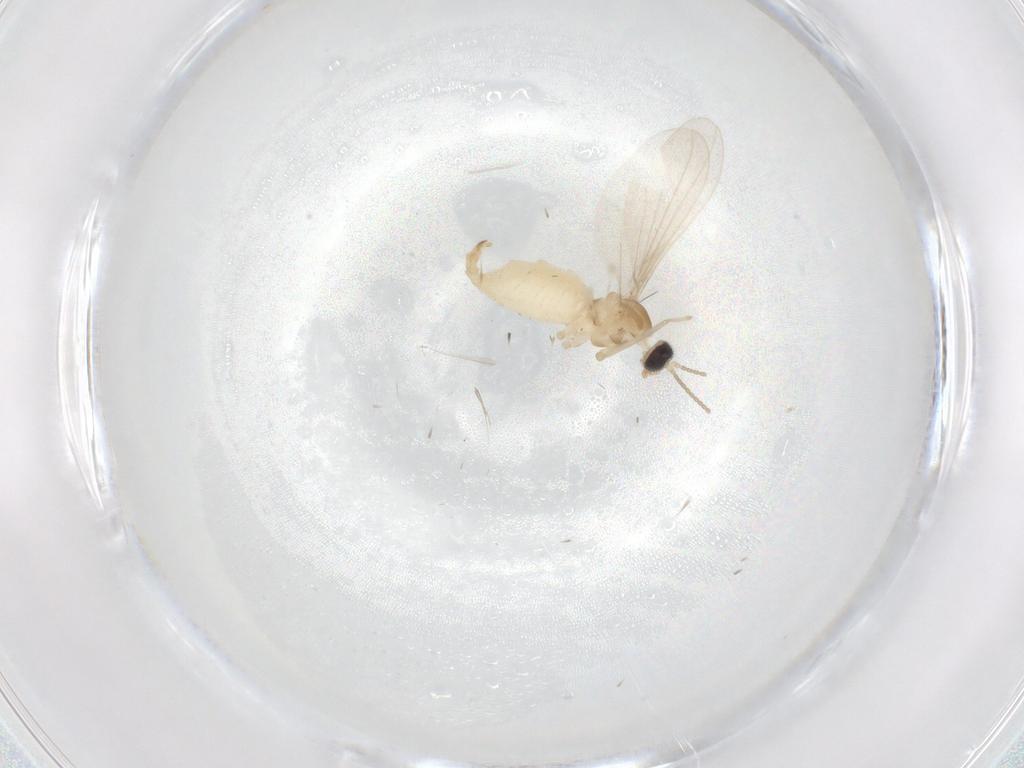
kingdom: Animalia
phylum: Arthropoda
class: Insecta
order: Diptera
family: Cecidomyiidae
